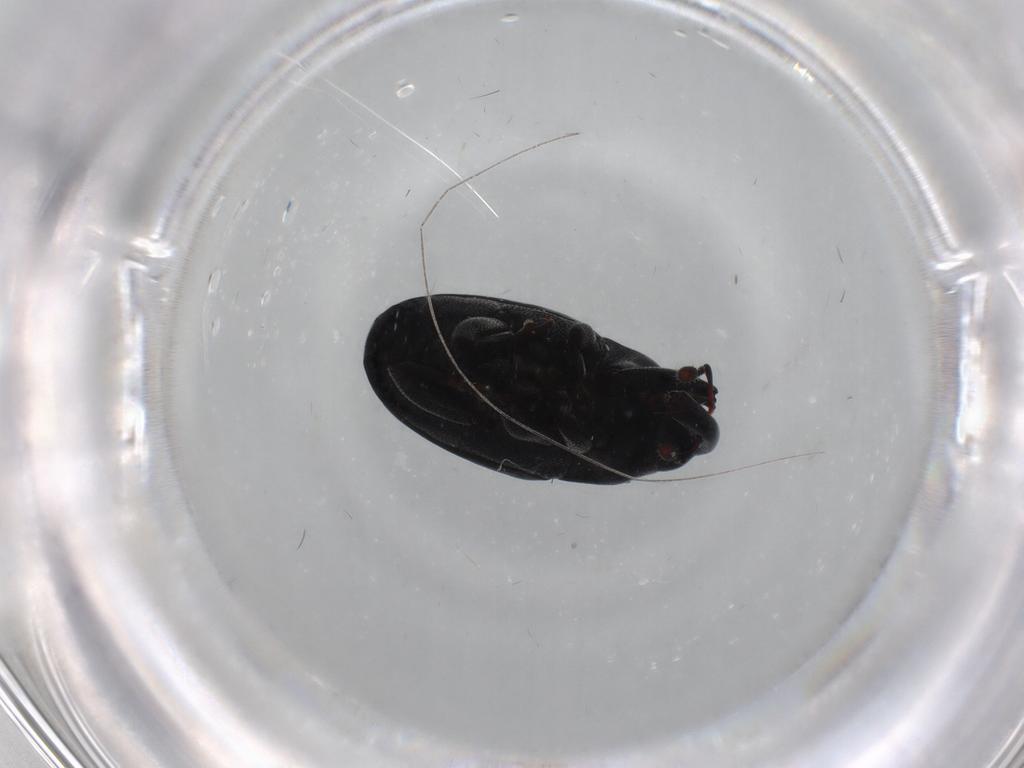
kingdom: Animalia
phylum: Arthropoda
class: Insecta
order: Coleoptera
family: Curculionidae
